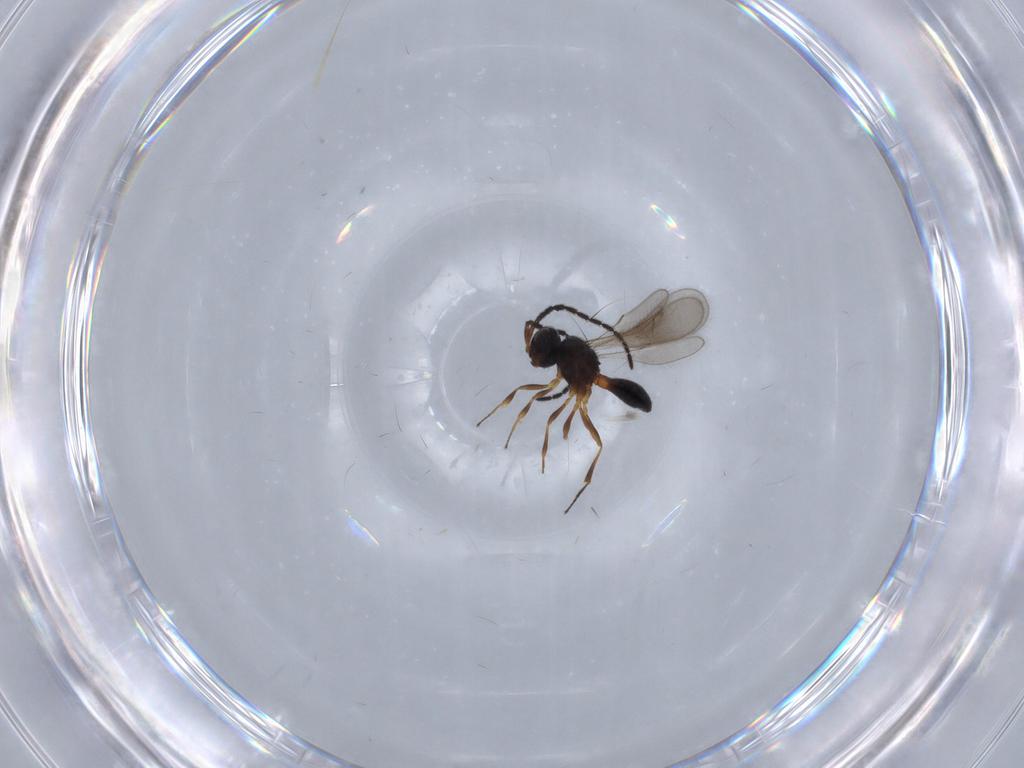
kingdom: Animalia
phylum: Arthropoda
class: Insecta
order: Hymenoptera
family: Scelionidae
